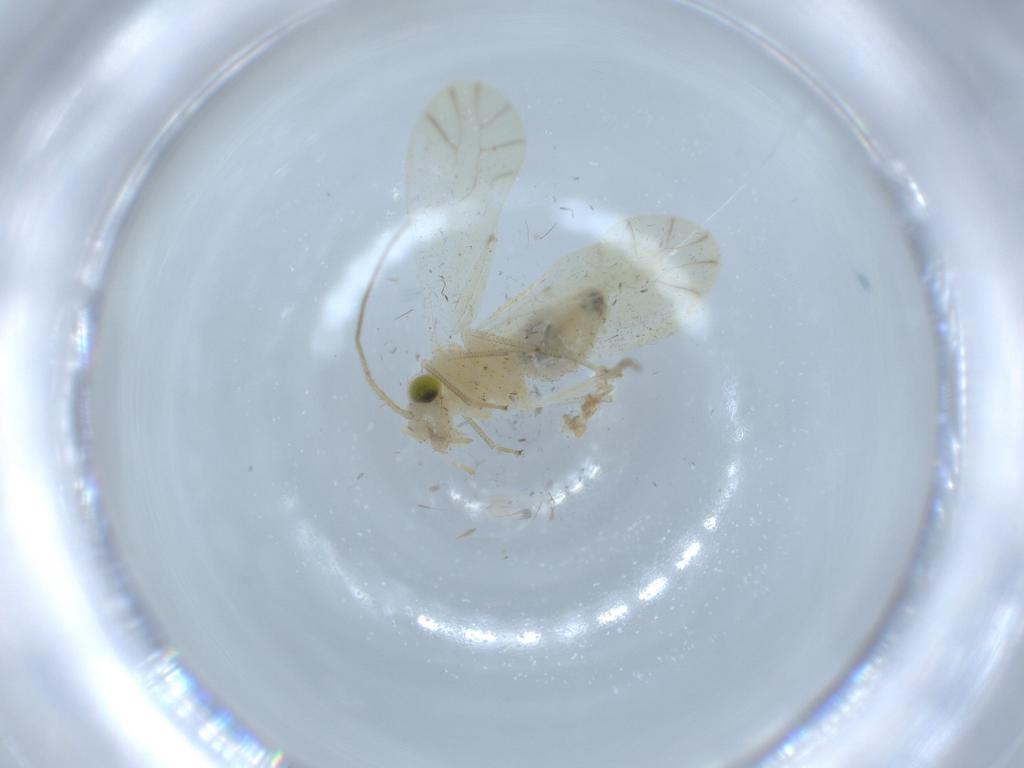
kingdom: Animalia
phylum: Arthropoda
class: Insecta
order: Psocodea
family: Caeciliusidae
